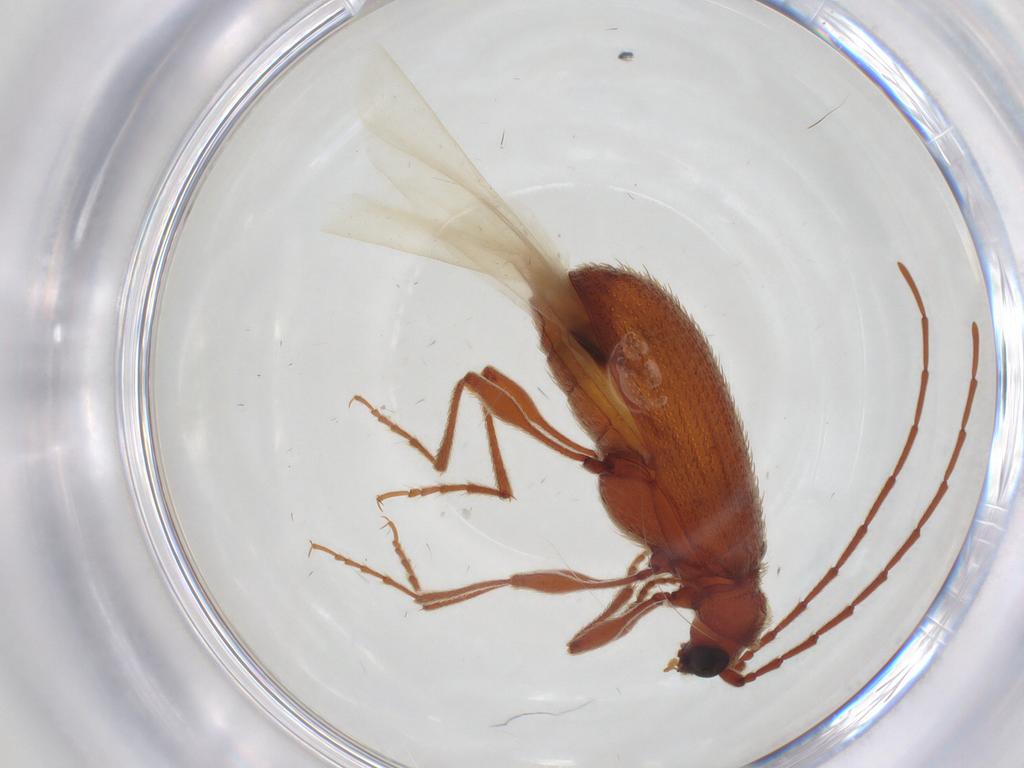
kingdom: Animalia
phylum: Arthropoda
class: Insecta
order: Coleoptera
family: Ptinidae
